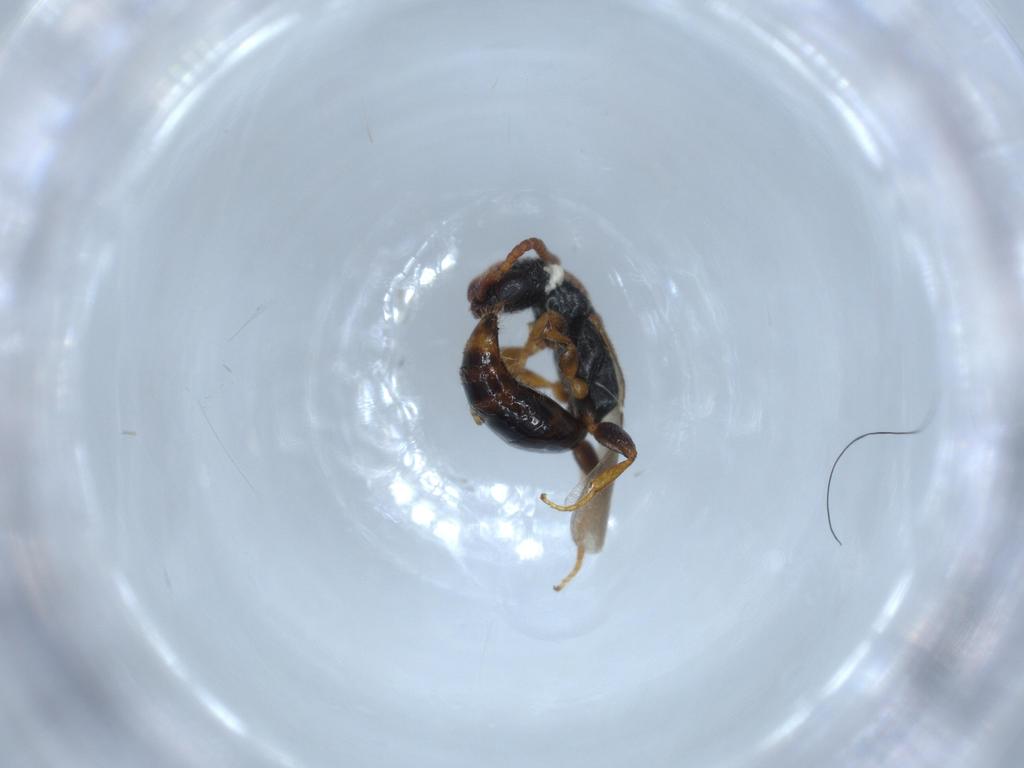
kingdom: Animalia
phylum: Arthropoda
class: Insecta
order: Hymenoptera
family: Bethylidae
